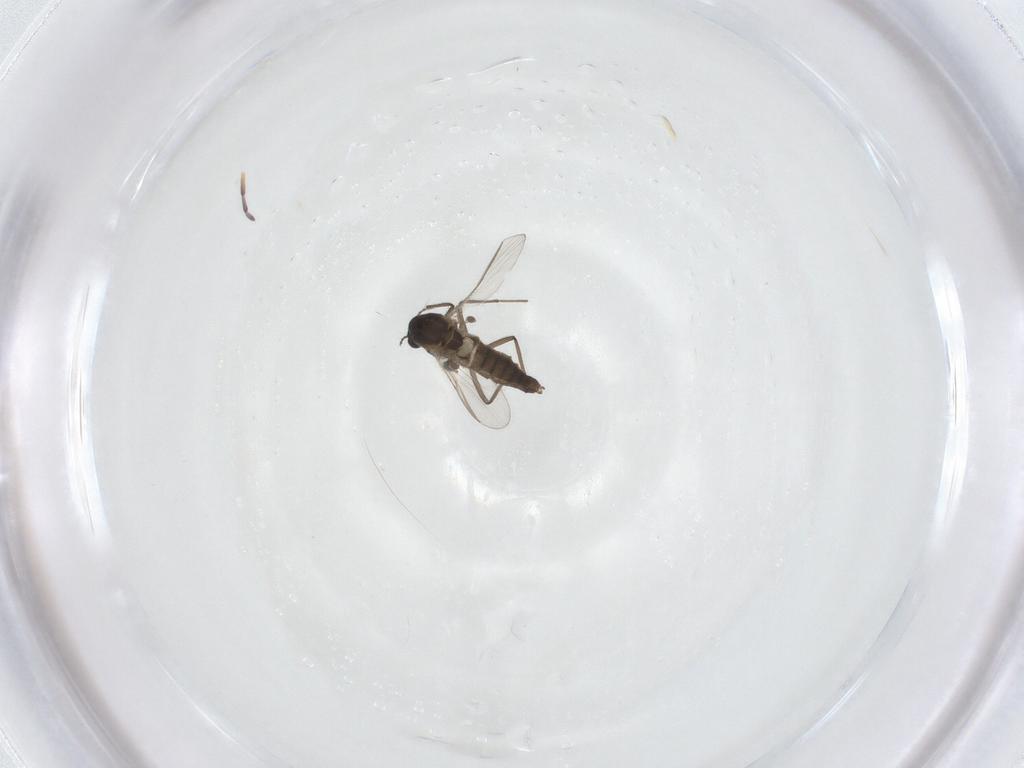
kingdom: Animalia
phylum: Arthropoda
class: Insecta
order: Diptera
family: Chironomidae
